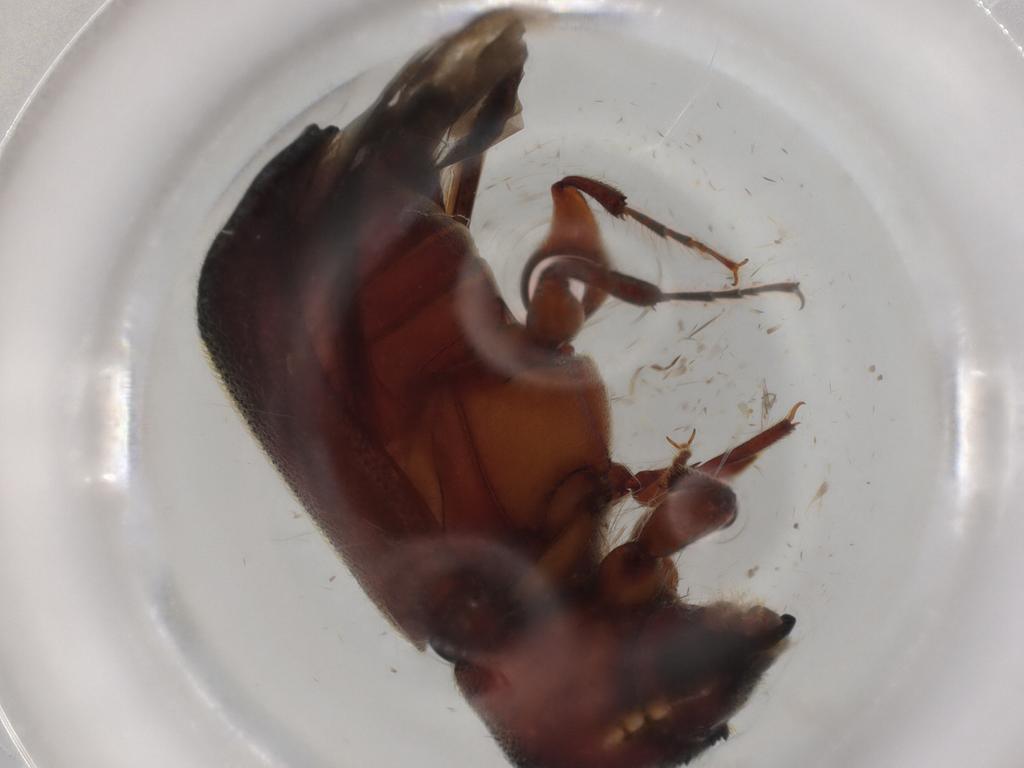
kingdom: Animalia
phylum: Arthropoda
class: Insecta
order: Coleoptera
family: Bostrichidae
